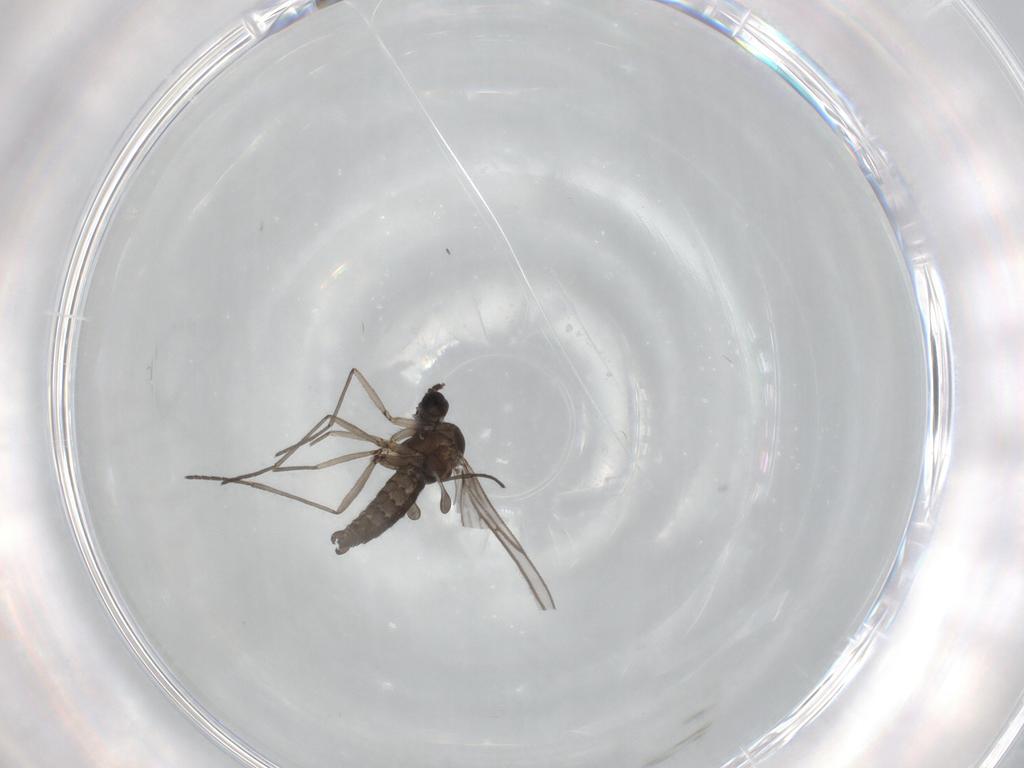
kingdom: Animalia
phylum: Arthropoda
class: Insecta
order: Diptera
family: Sciaridae
